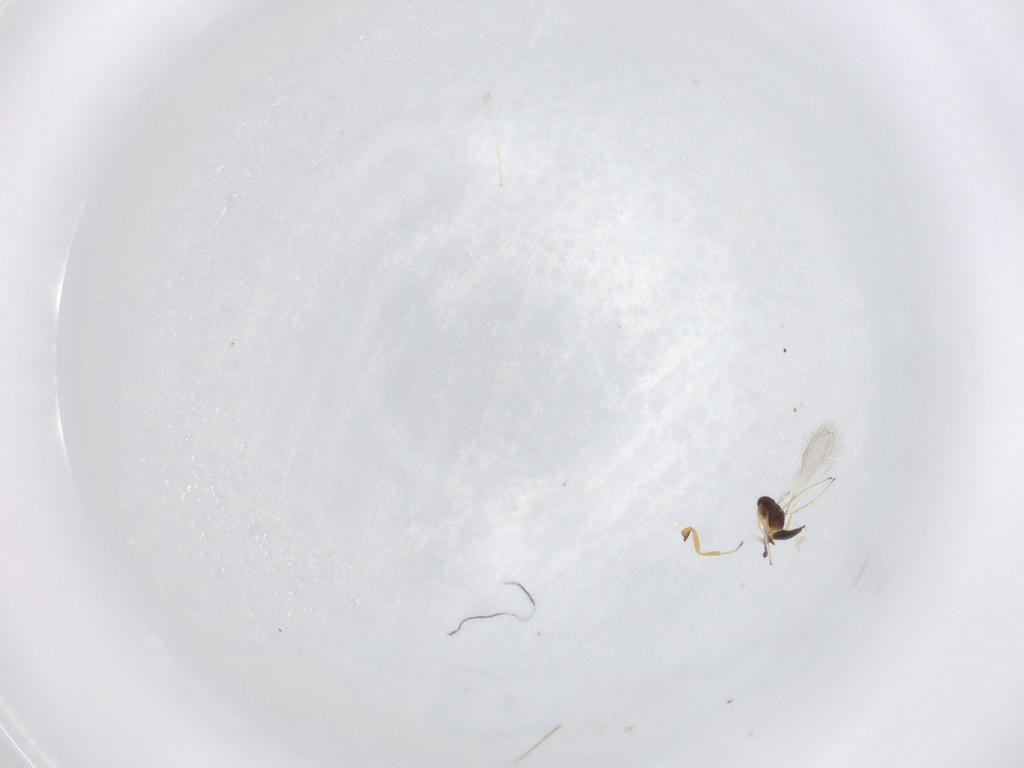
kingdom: Animalia
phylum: Arthropoda
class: Insecta
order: Hymenoptera
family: Scelionidae
